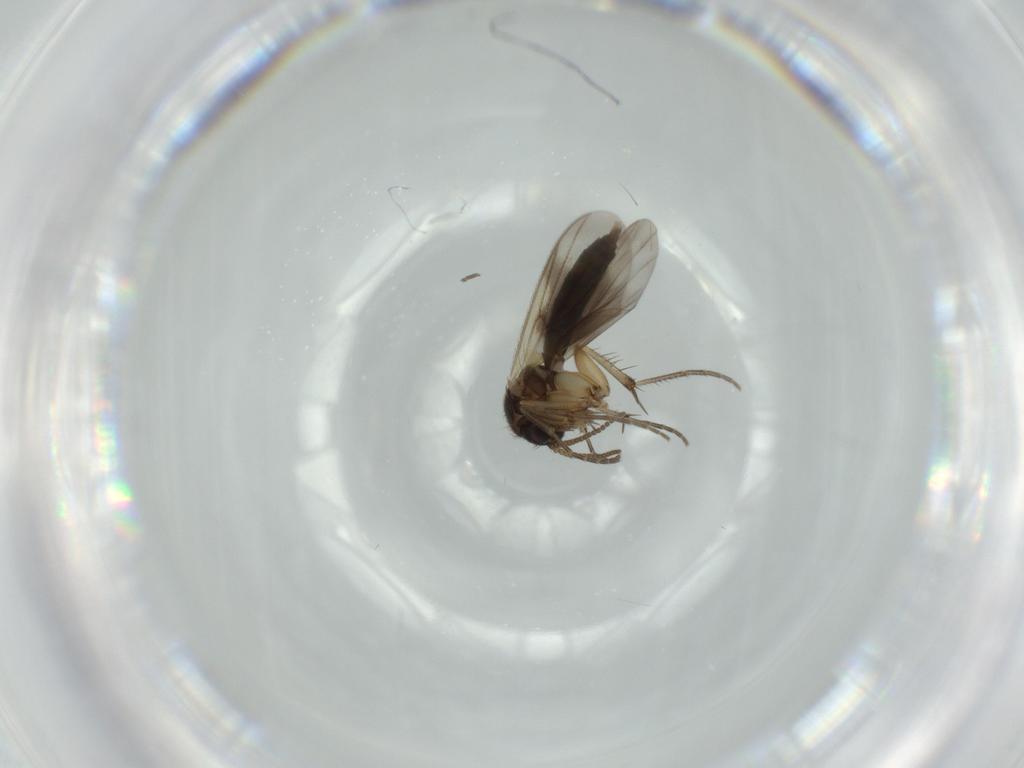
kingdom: Animalia
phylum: Arthropoda
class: Insecta
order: Diptera
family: Mycetophilidae
